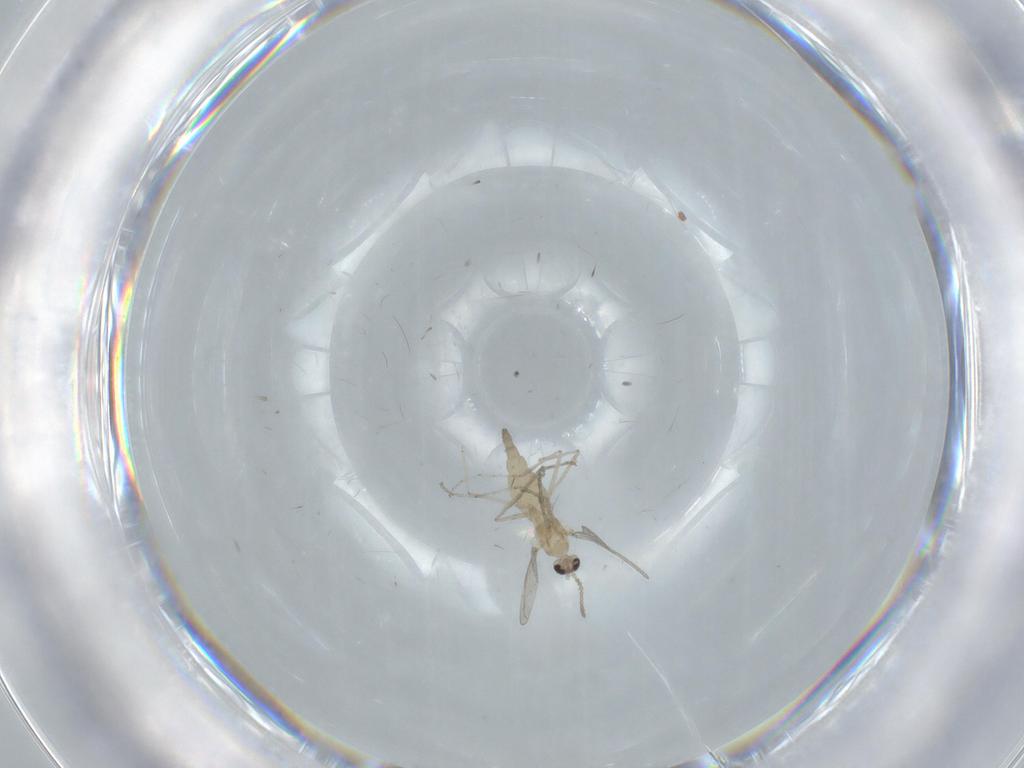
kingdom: Animalia
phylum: Arthropoda
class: Insecta
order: Diptera
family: Cecidomyiidae
